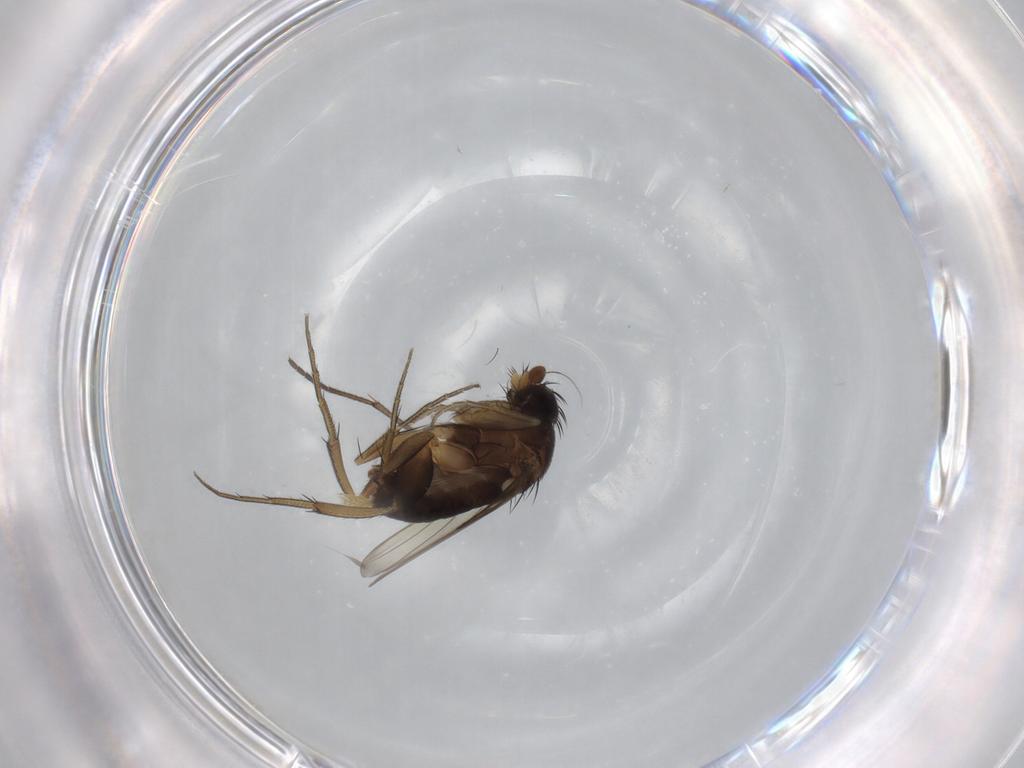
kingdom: Animalia
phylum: Arthropoda
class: Insecta
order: Diptera
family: Phoridae
